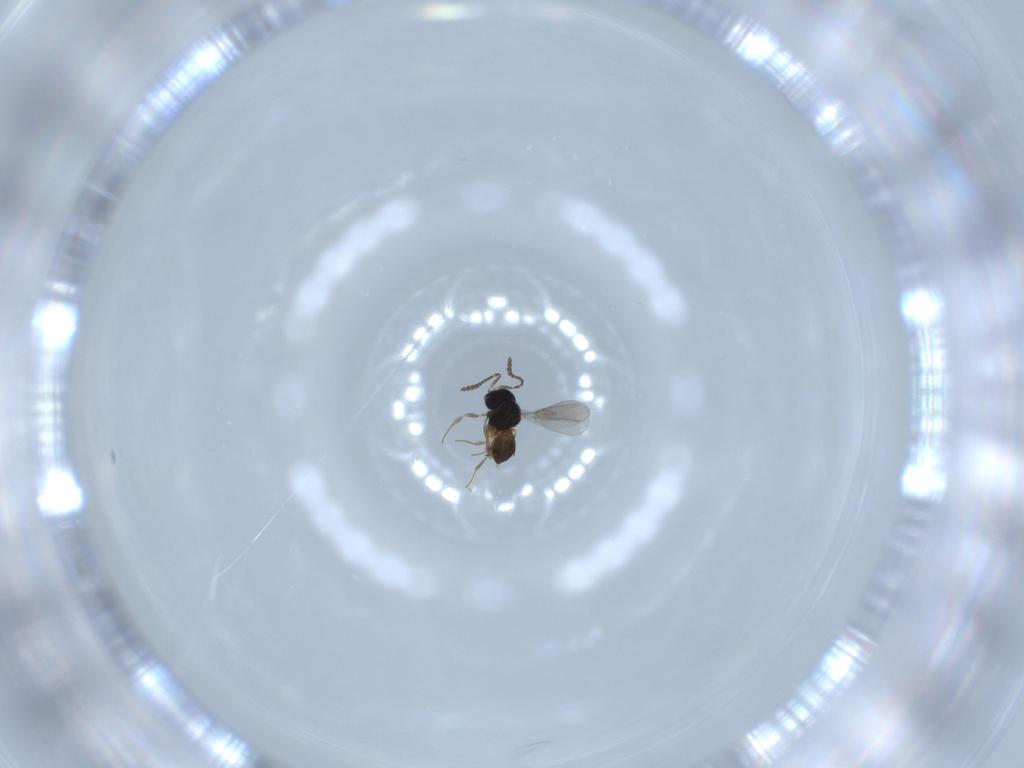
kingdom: Animalia
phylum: Arthropoda
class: Insecta
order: Hymenoptera
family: Scelionidae
